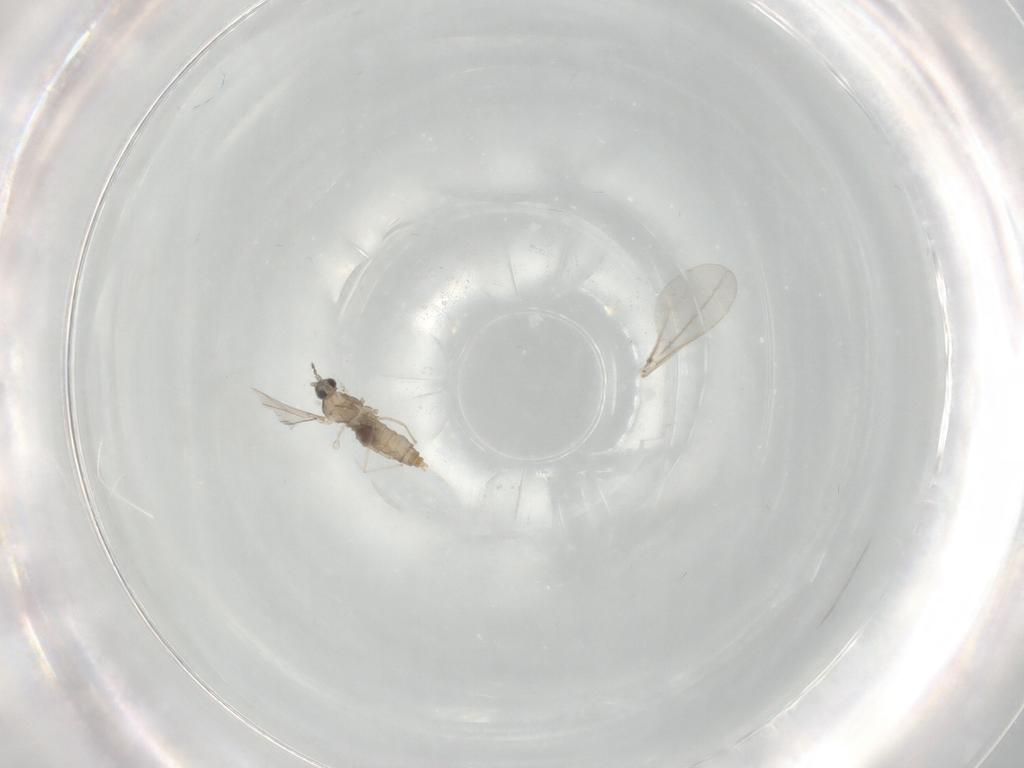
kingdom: Animalia
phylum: Arthropoda
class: Insecta
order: Diptera
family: Cecidomyiidae
